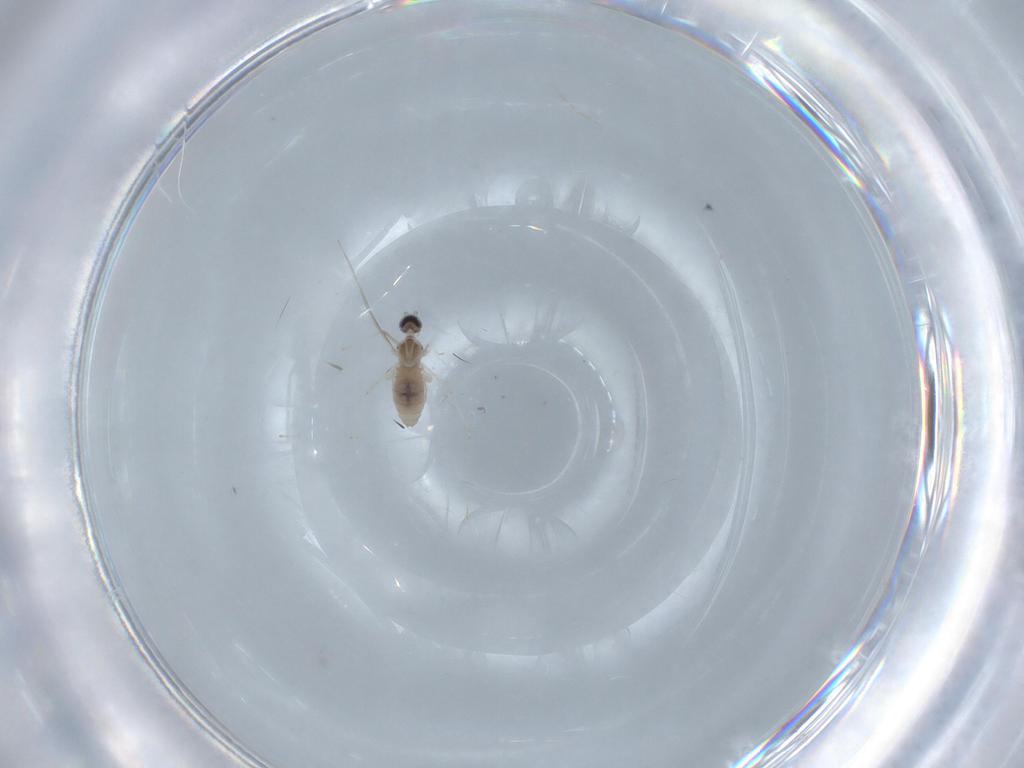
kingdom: Animalia
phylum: Arthropoda
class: Insecta
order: Diptera
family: Cecidomyiidae
